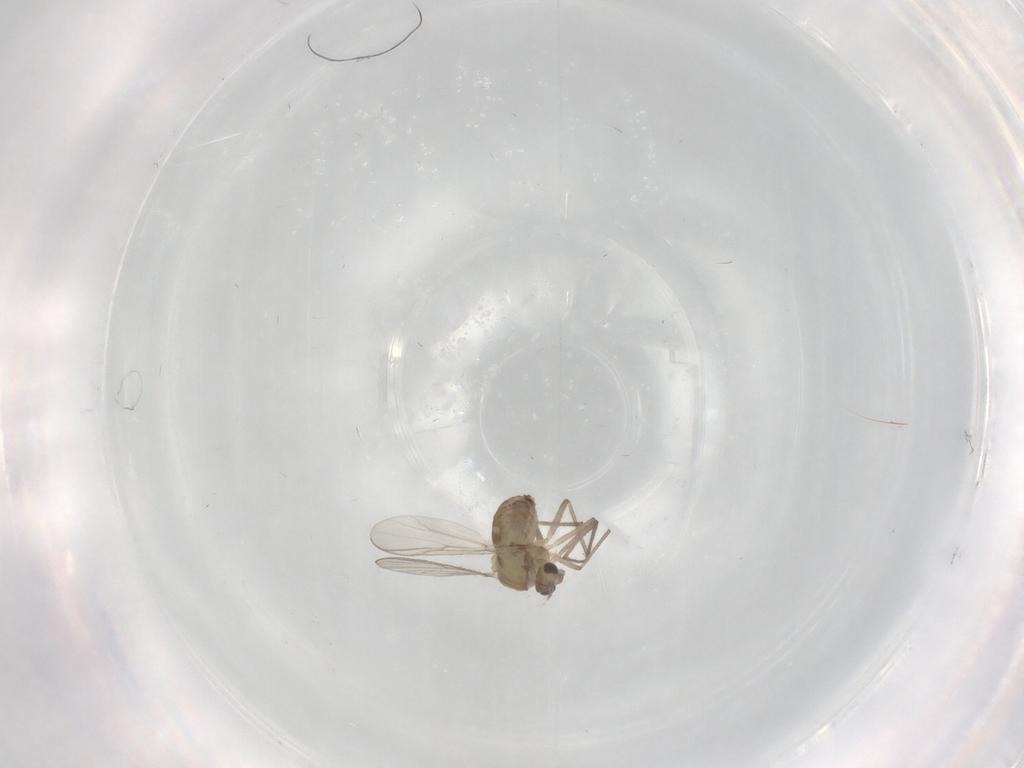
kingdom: Animalia
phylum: Arthropoda
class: Insecta
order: Diptera
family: Chironomidae
